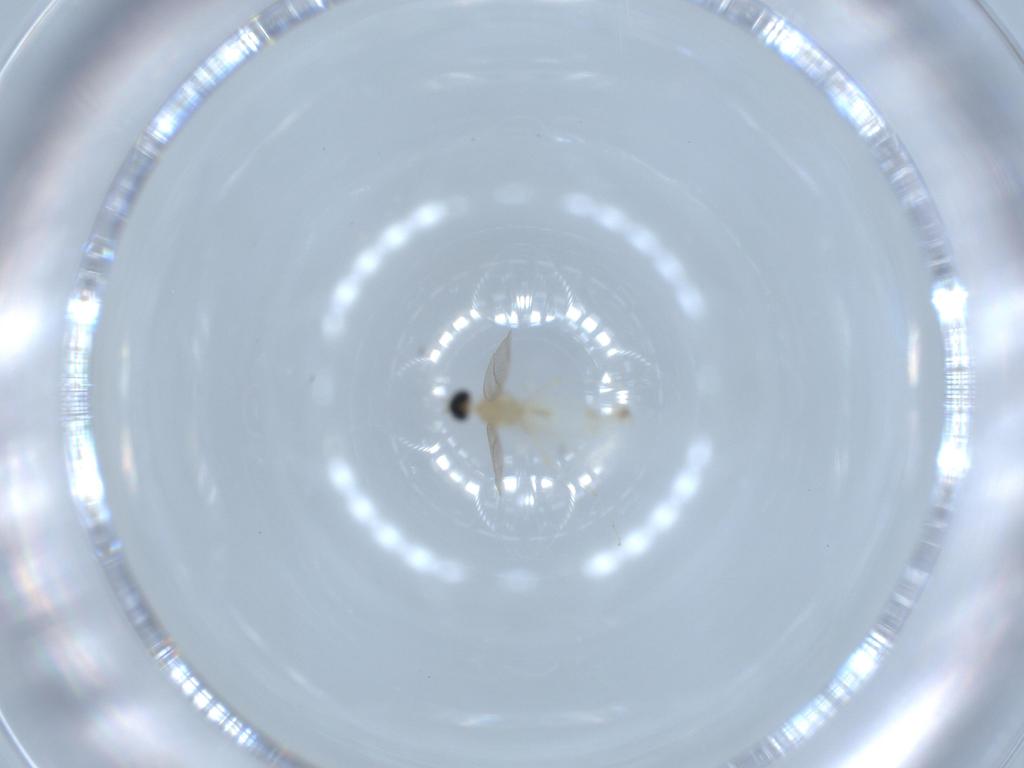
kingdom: Animalia
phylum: Arthropoda
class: Insecta
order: Diptera
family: Cecidomyiidae
